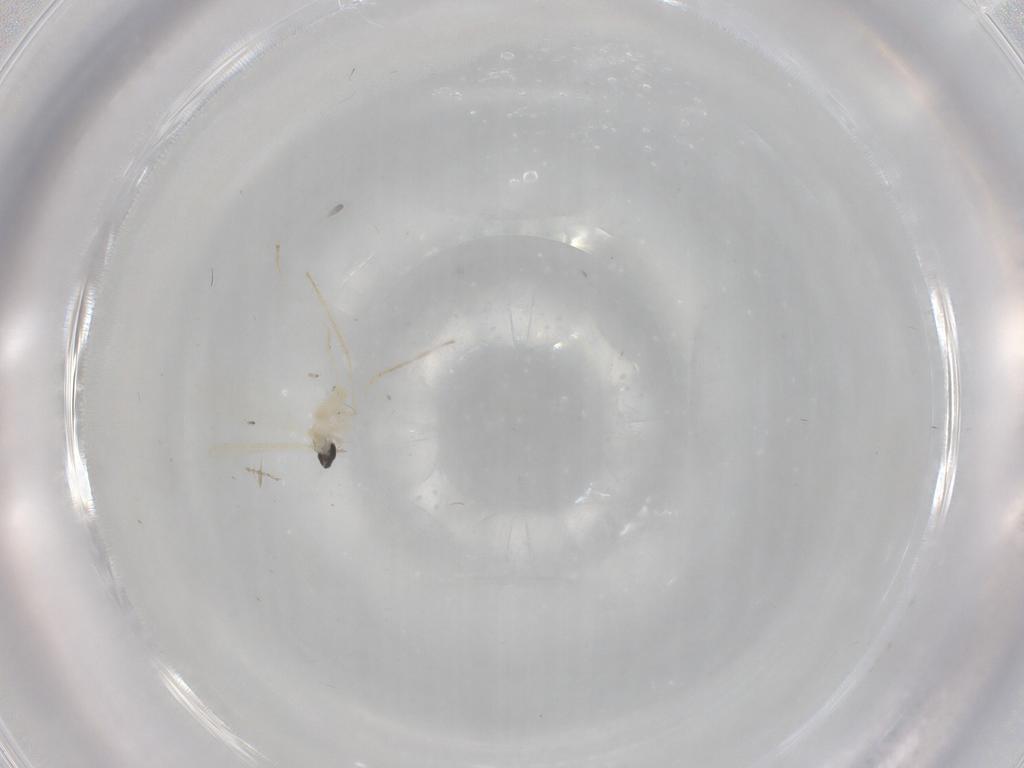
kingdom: Animalia
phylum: Arthropoda
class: Insecta
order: Diptera
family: Cecidomyiidae
